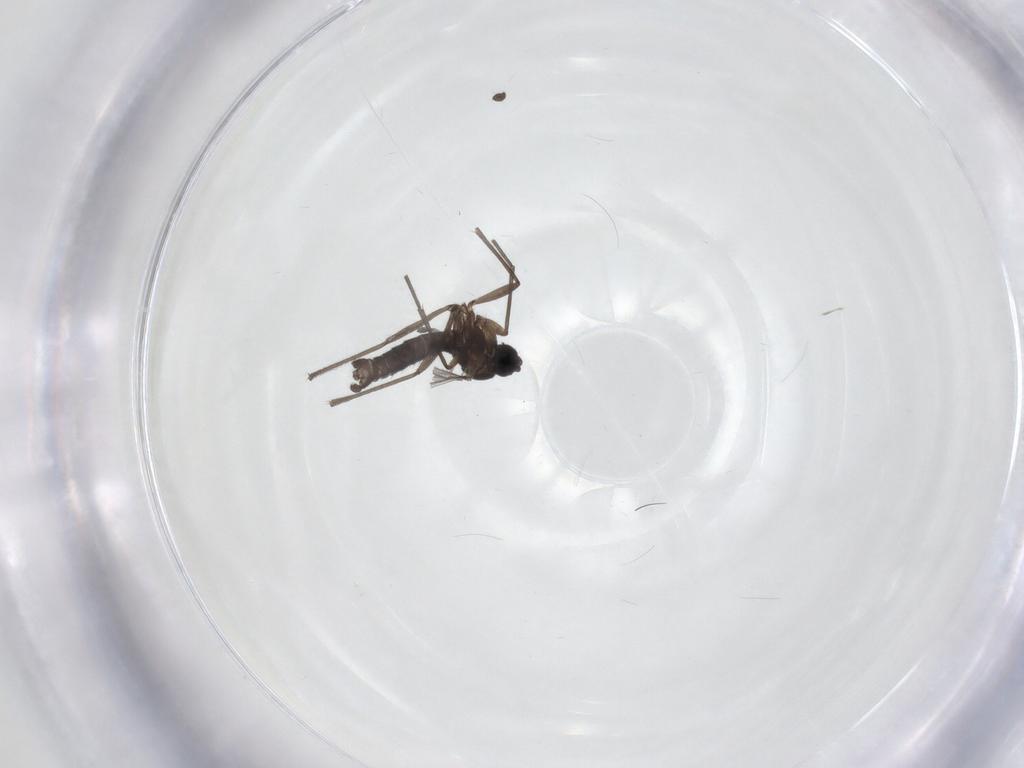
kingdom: Animalia
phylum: Arthropoda
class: Insecta
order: Diptera
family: Sciaridae
